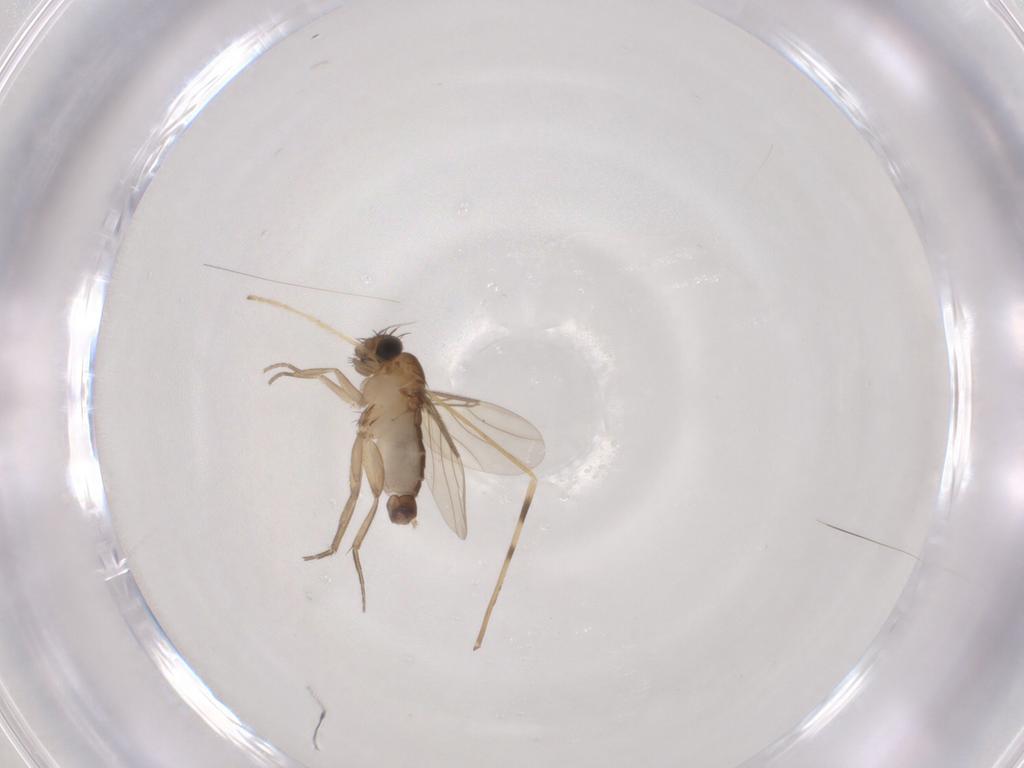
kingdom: Animalia
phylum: Arthropoda
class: Insecta
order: Diptera
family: Limoniidae
